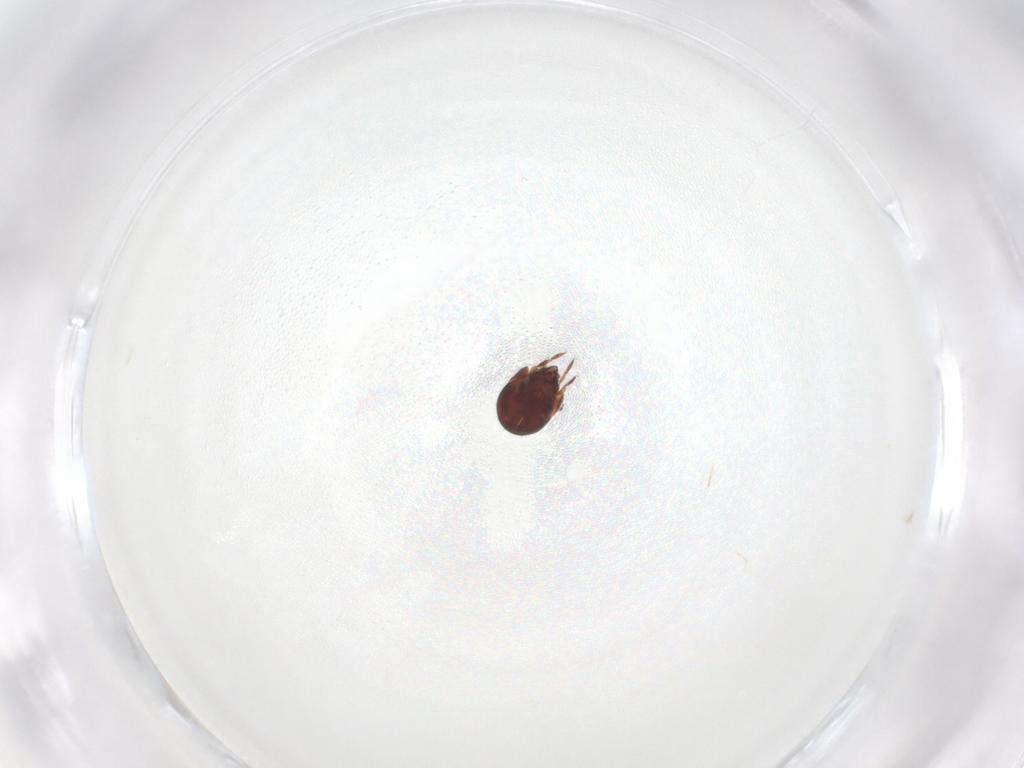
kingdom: Animalia
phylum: Arthropoda
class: Arachnida
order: Sarcoptiformes
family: Humerobatidae
